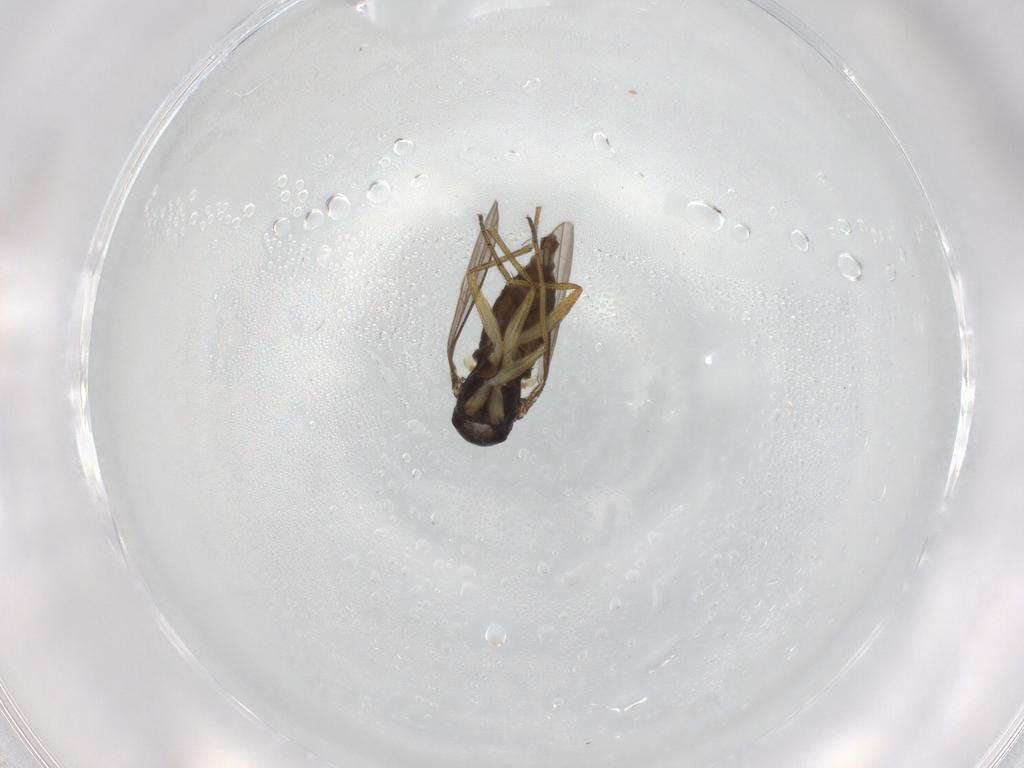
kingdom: Animalia
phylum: Arthropoda
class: Insecta
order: Diptera
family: Dolichopodidae
